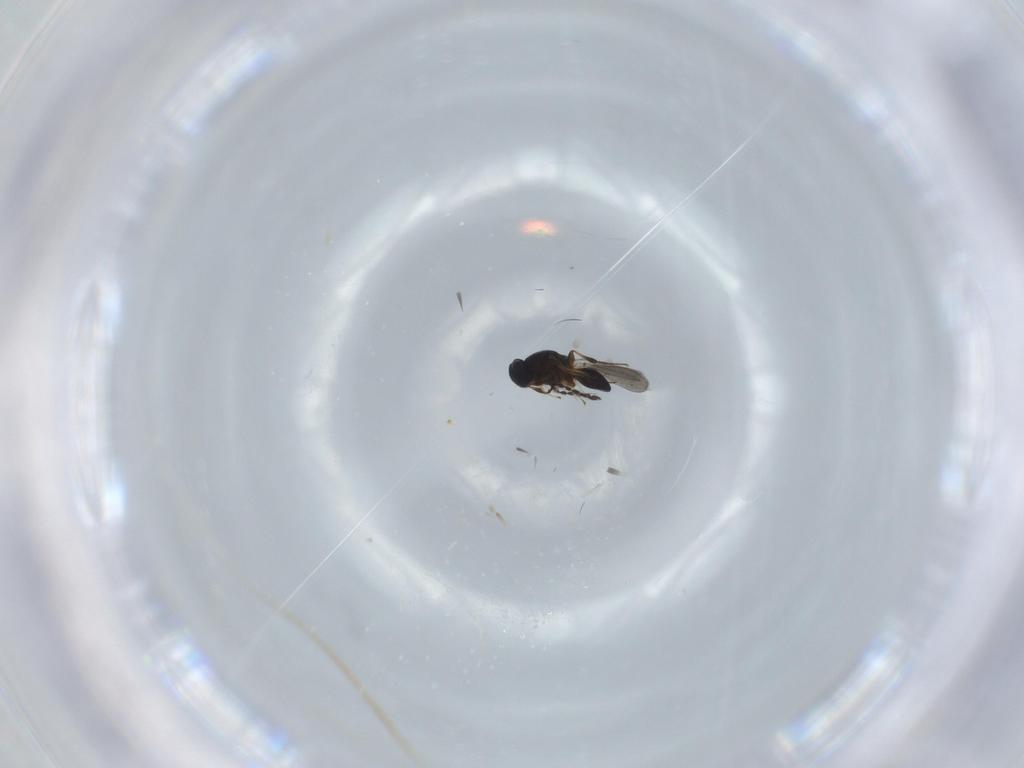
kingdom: Animalia
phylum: Arthropoda
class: Insecta
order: Hymenoptera
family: Platygastridae
